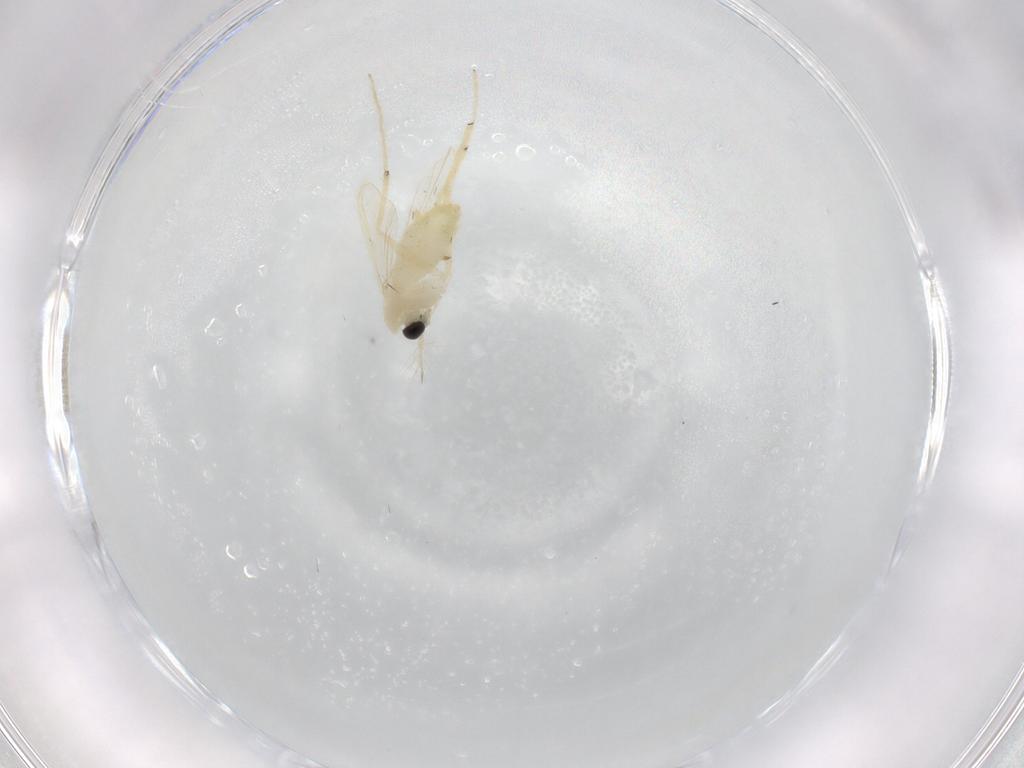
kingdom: Animalia
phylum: Arthropoda
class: Insecta
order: Diptera
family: Chironomidae
